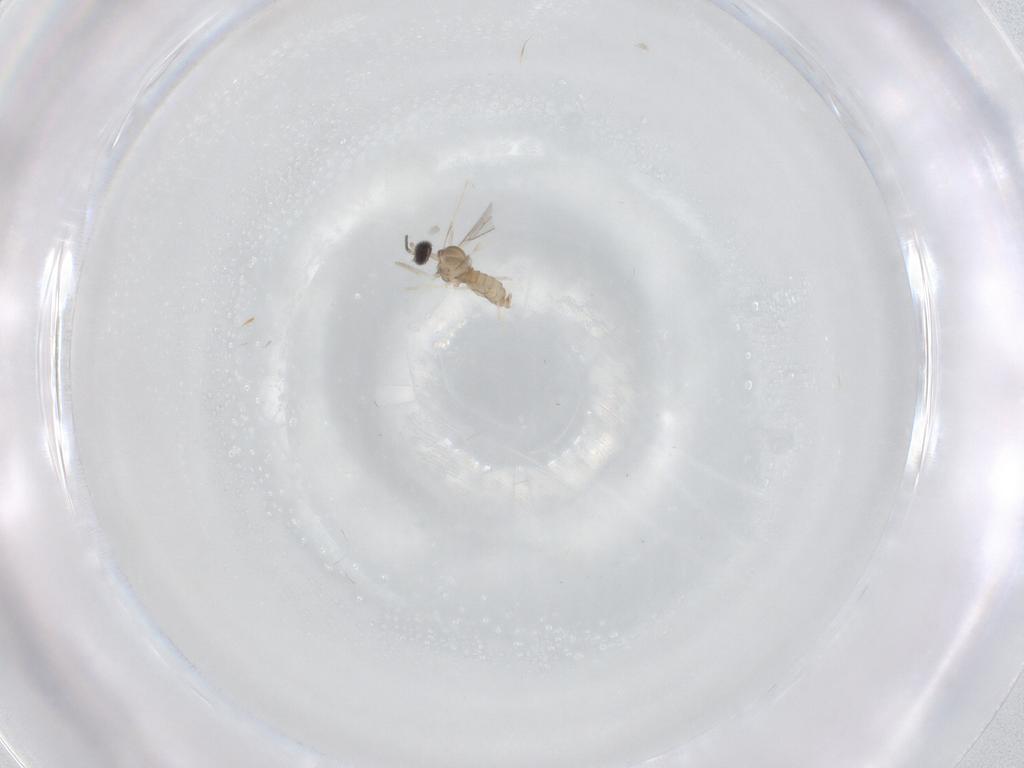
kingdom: Animalia
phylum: Arthropoda
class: Insecta
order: Diptera
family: Cecidomyiidae
